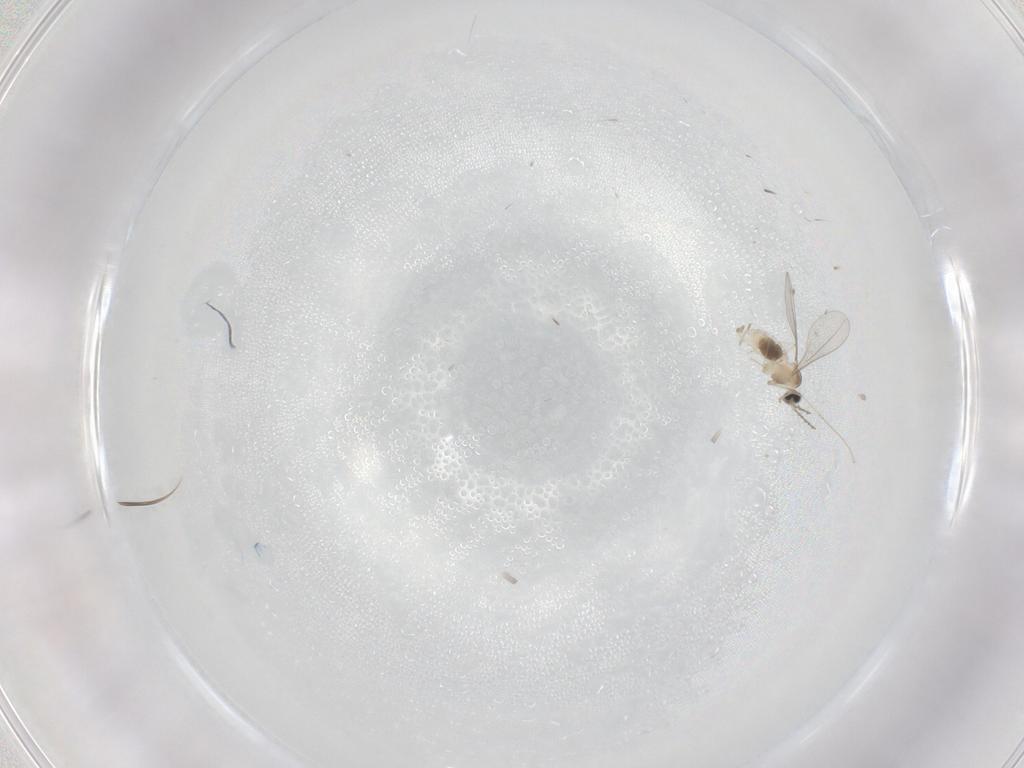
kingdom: Animalia
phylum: Arthropoda
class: Insecta
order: Diptera
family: Cecidomyiidae
